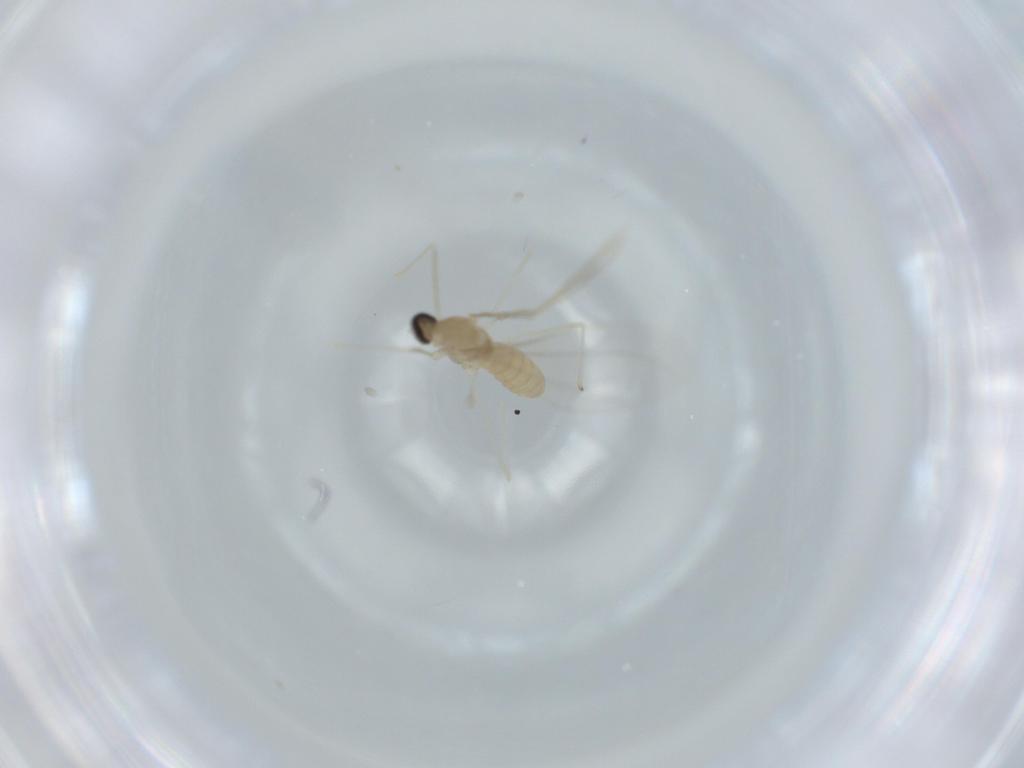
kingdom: Animalia
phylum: Arthropoda
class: Insecta
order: Diptera
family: Cecidomyiidae
